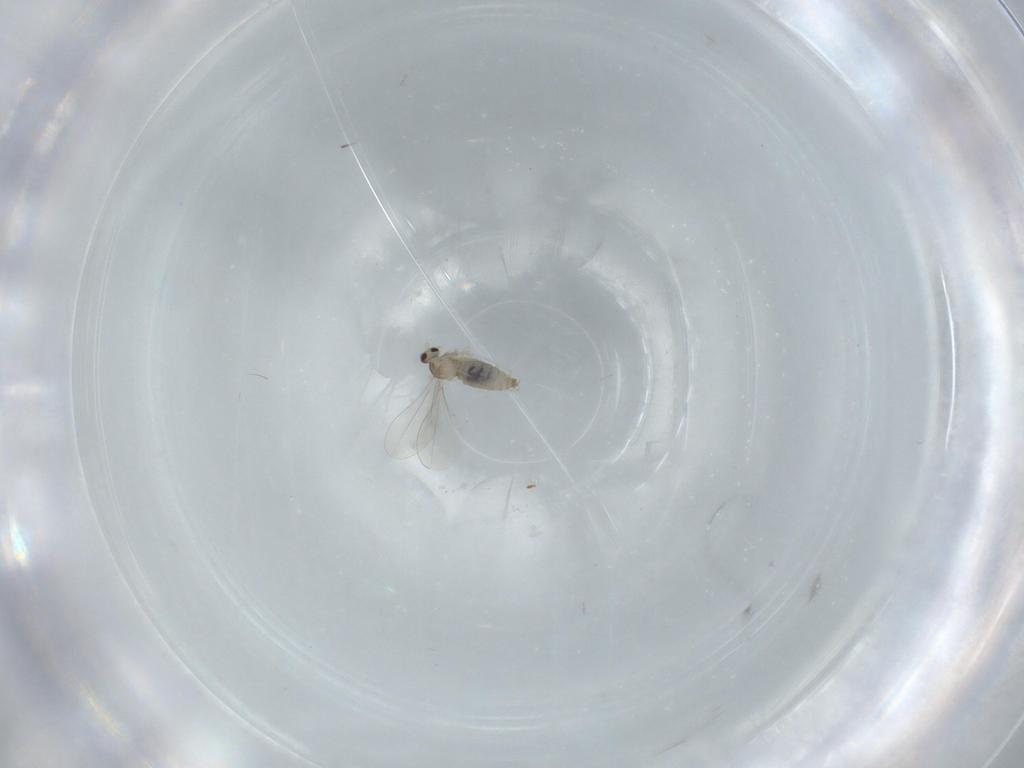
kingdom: Animalia
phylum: Arthropoda
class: Insecta
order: Diptera
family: Cecidomyiidae
